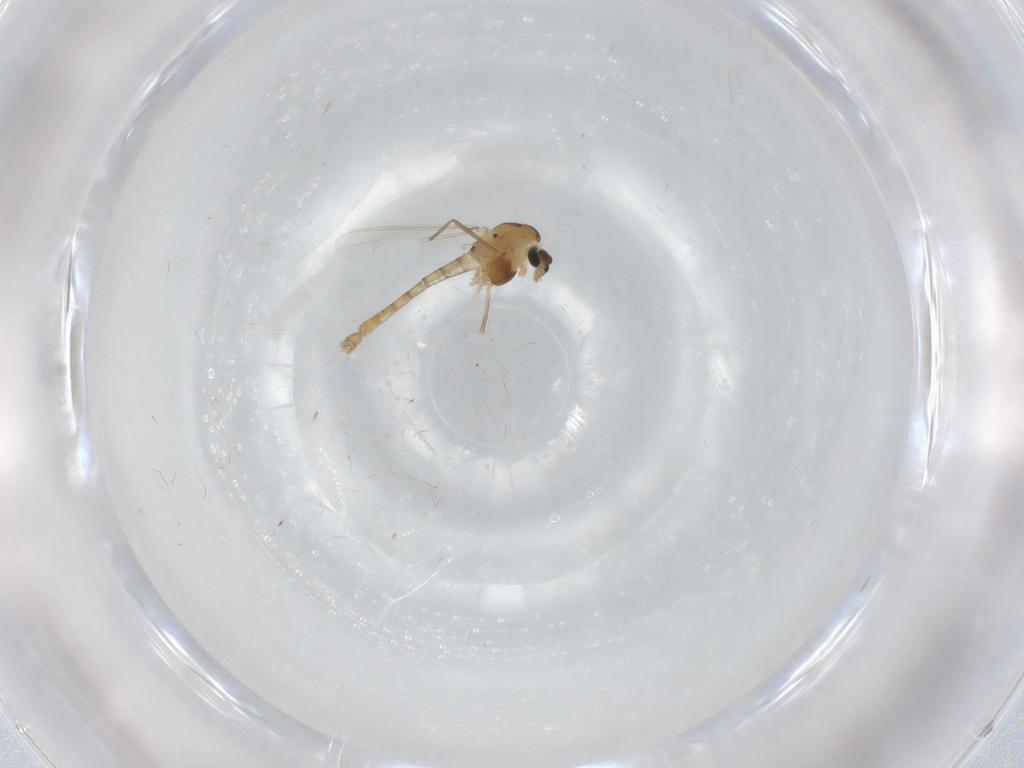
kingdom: Animalia
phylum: Arthropoda
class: Insecta
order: Diptera
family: Chironomidae
